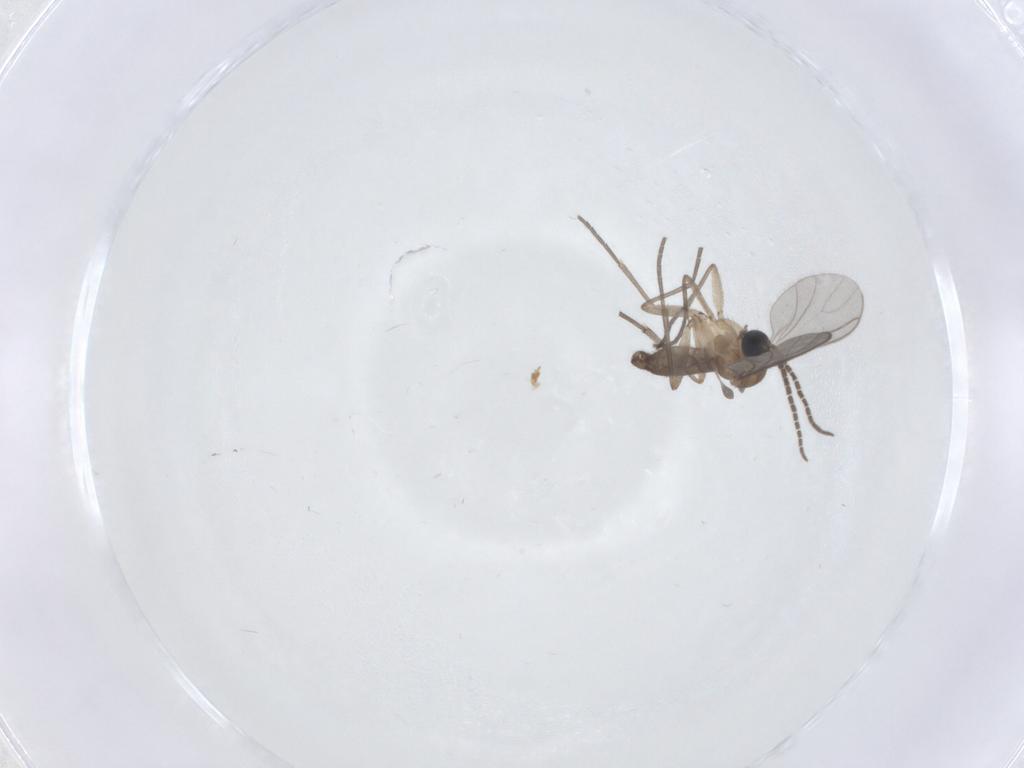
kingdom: Animalia
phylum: Arthropoda
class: Insecta
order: Diptera
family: Sciaridae
